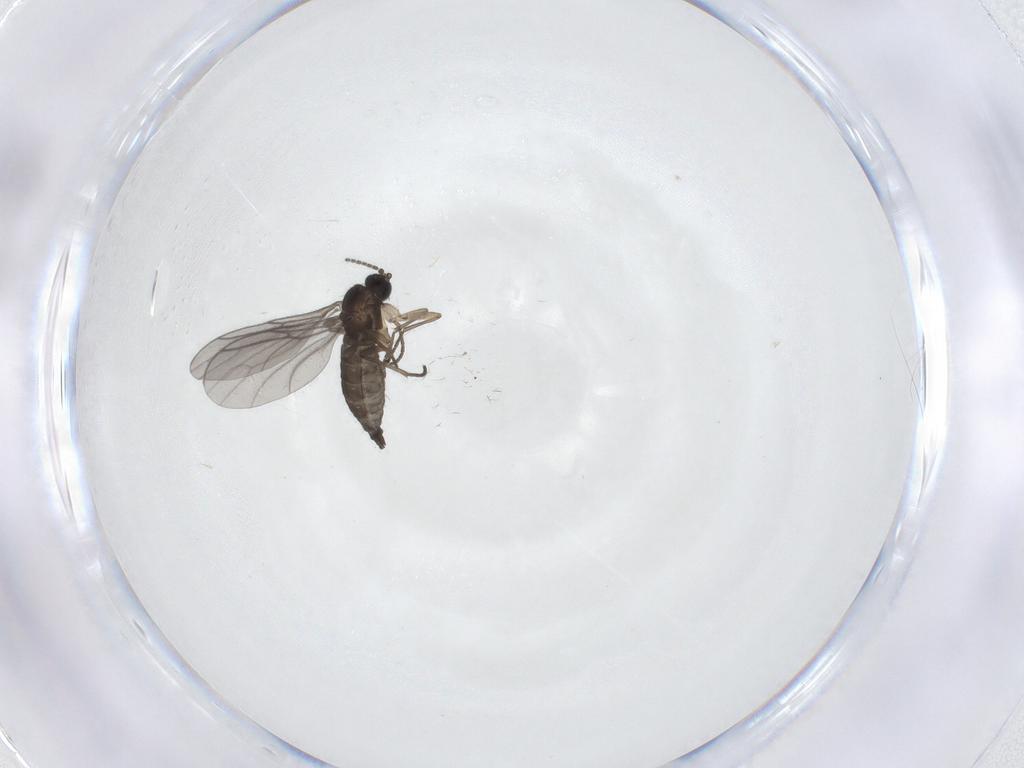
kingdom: Animalia
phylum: Arthropoda
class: Insecta
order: Diptera
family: Sciaridae
